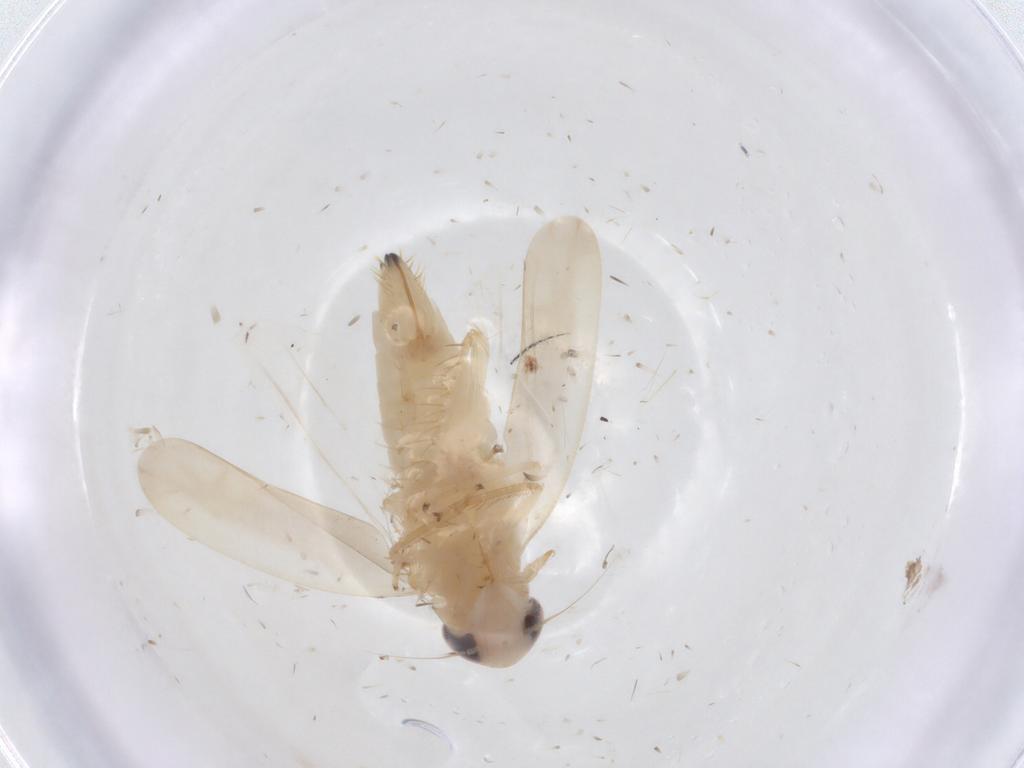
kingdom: Animalia
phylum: Arthropoda
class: Insecta
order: Hemiptera
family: Cicadellidae
